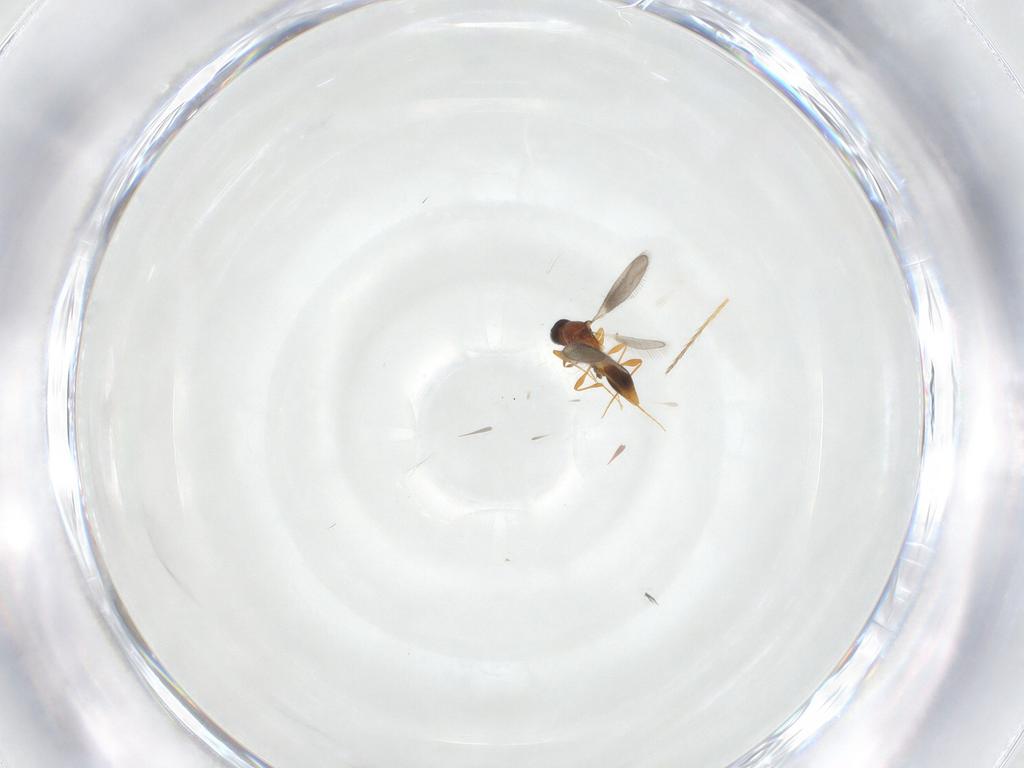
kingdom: Animalia
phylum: Arthropoda
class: Insecta
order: Hymenoptera
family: Platygastridae
